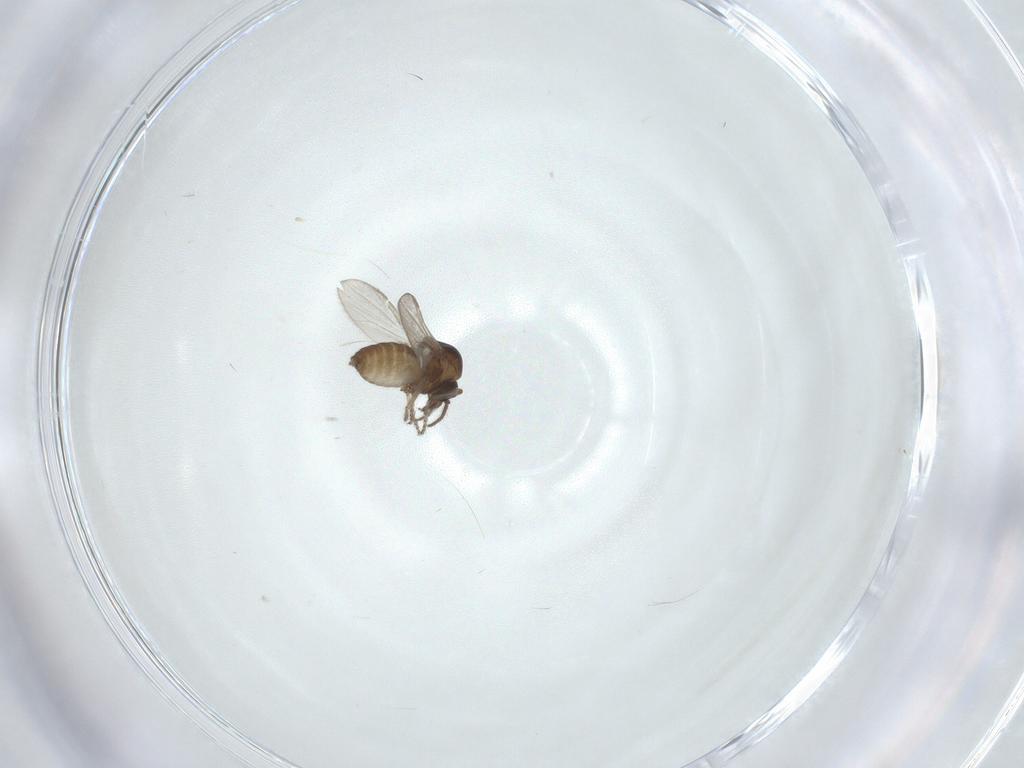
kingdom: Animalia
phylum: Arthropoda
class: Insecta
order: Diptera
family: Ceratopogonidae
